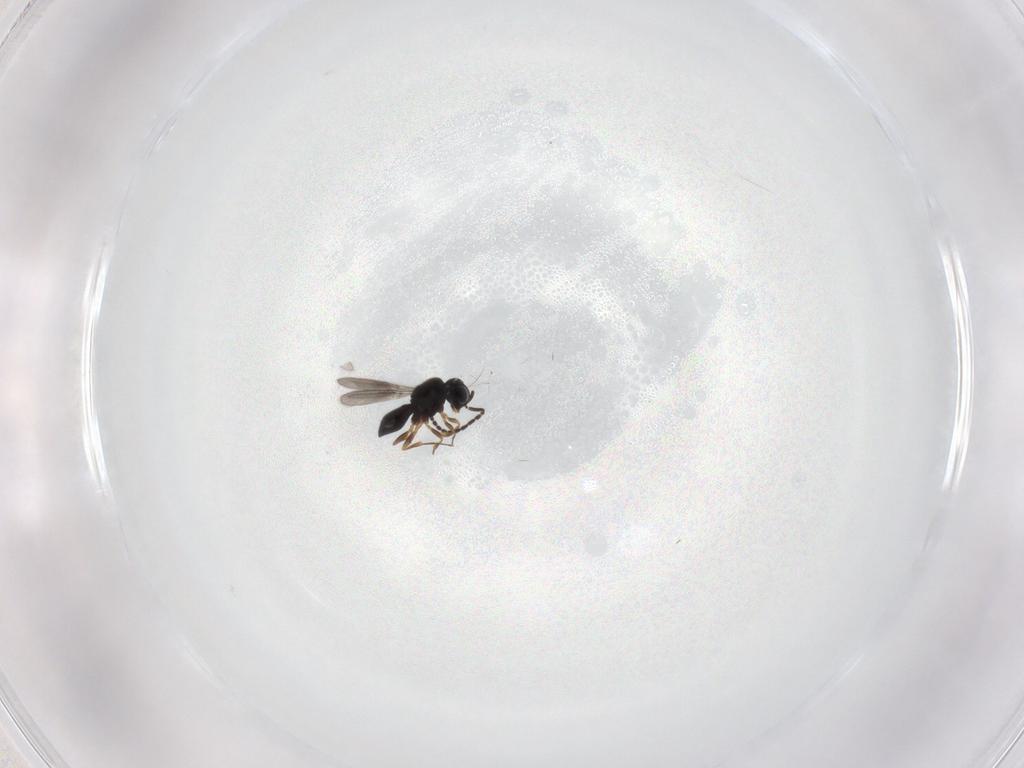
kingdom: Animalia
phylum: Arthropoda
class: Insecta
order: Hymenoptera
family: Scelionidae
